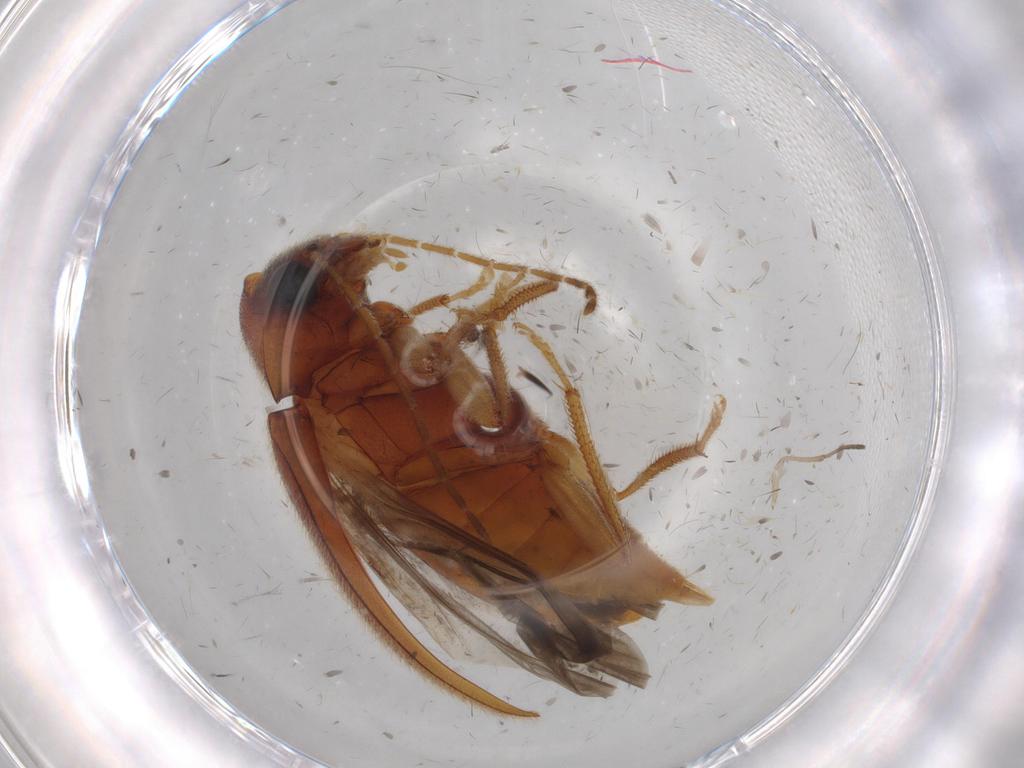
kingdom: Animalia
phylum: Arthropoda
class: Insecta
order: Coleoptera
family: Ptilodactylidae
